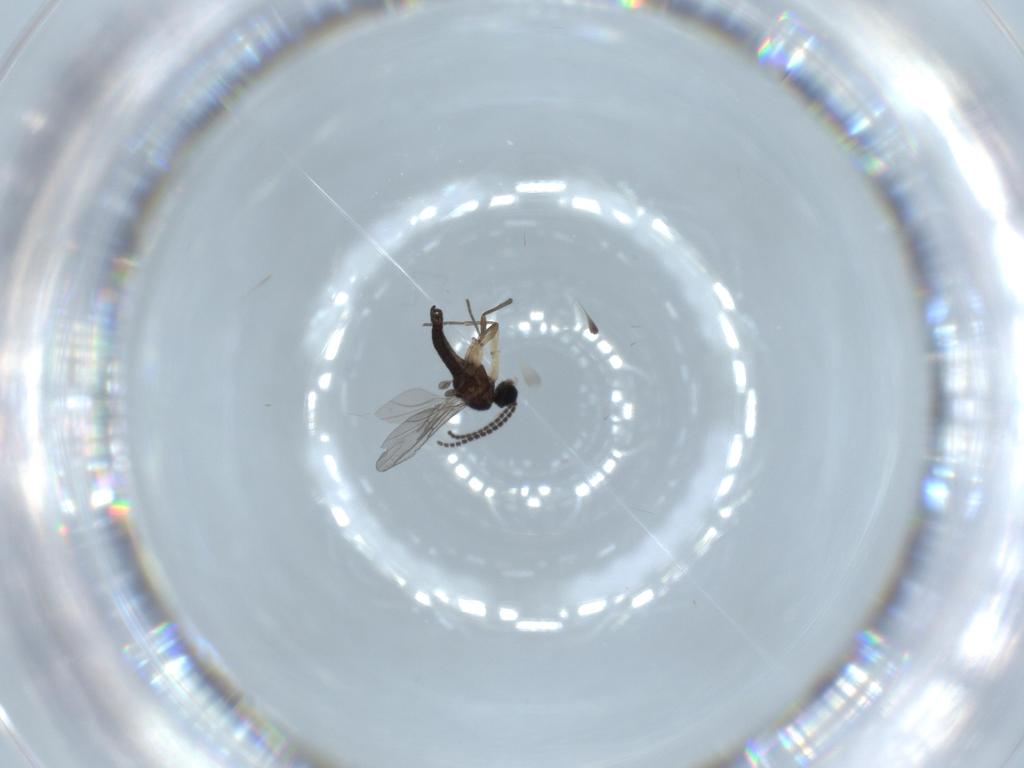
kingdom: Animalia
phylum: Arthropoda
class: Insecta
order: Diptera
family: Sciaridae
